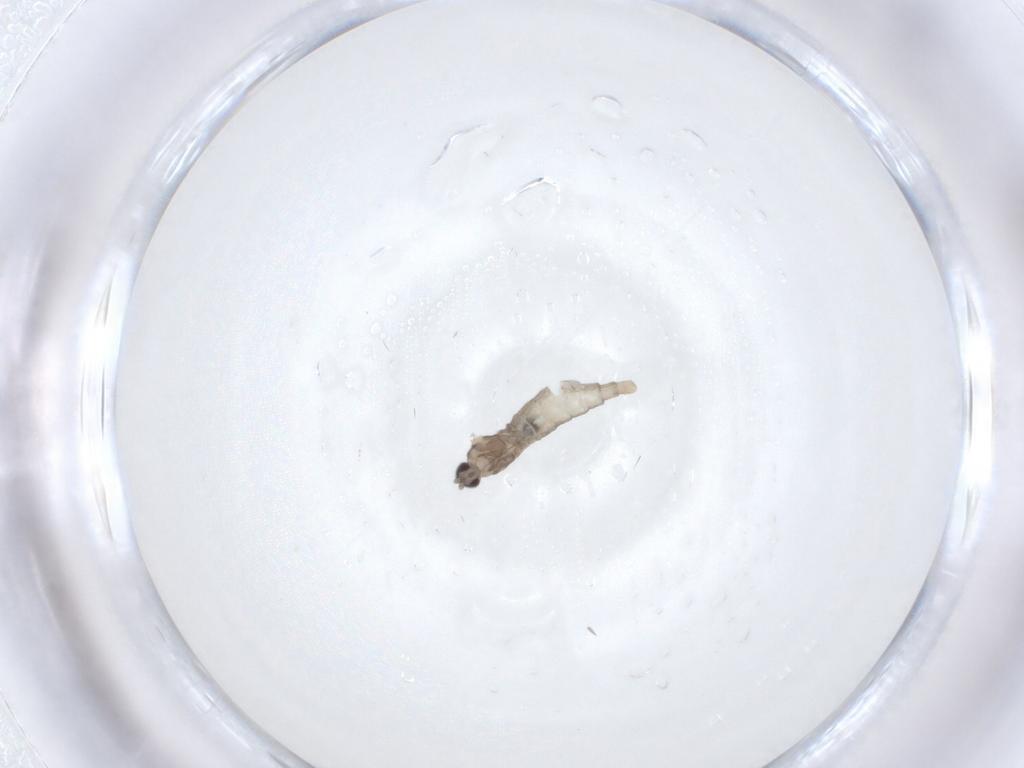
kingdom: Animalia
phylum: Arthropoda
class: Insecta
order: Diptera
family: Cecidomyiidae
